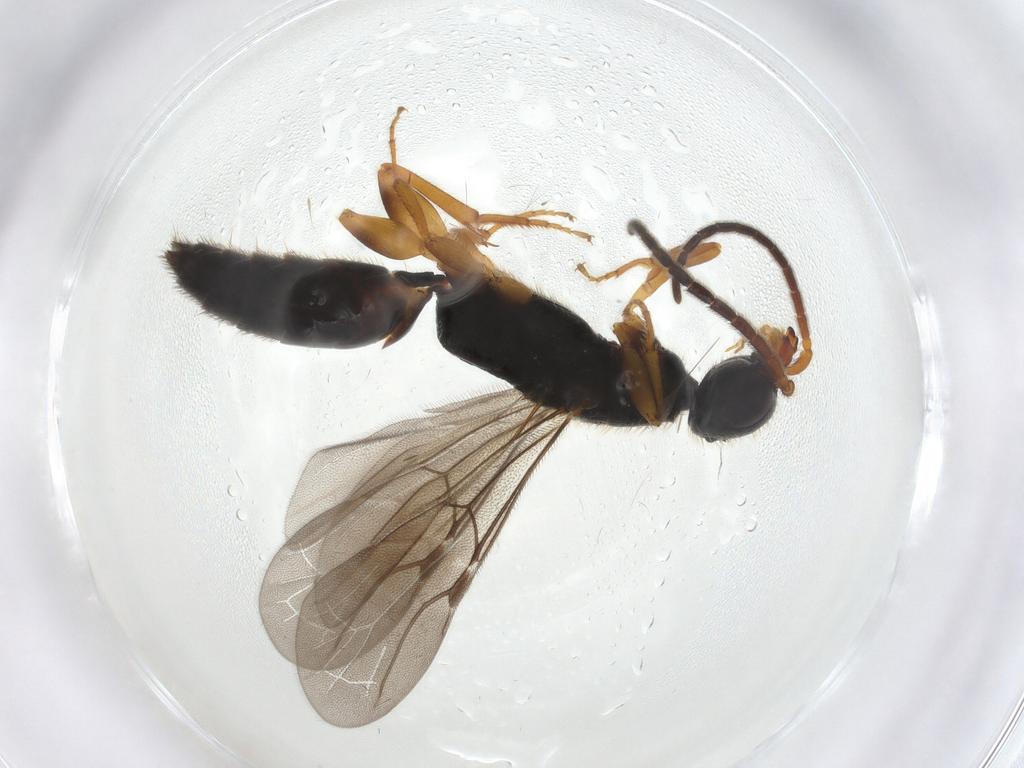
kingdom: Animalia
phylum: Arthropoda
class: Insecta
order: Hymenoptera
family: Bethylidae
